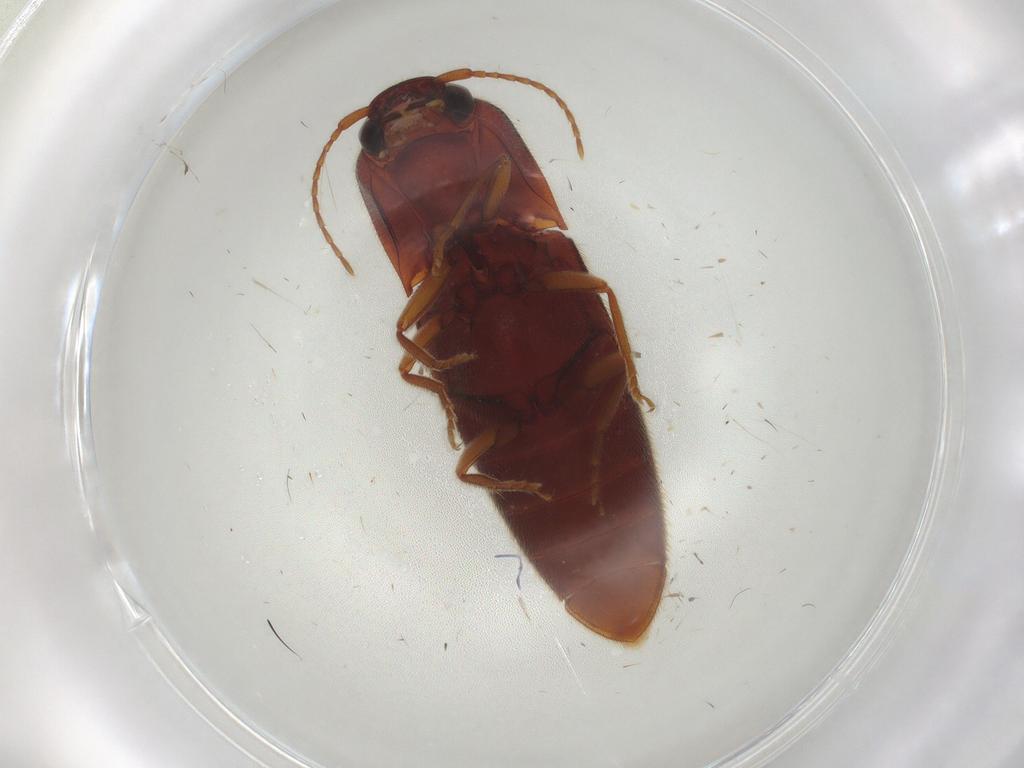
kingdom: Animalia
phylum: Arthropoda
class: Insecta
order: Coleoptera
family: Elateridae
